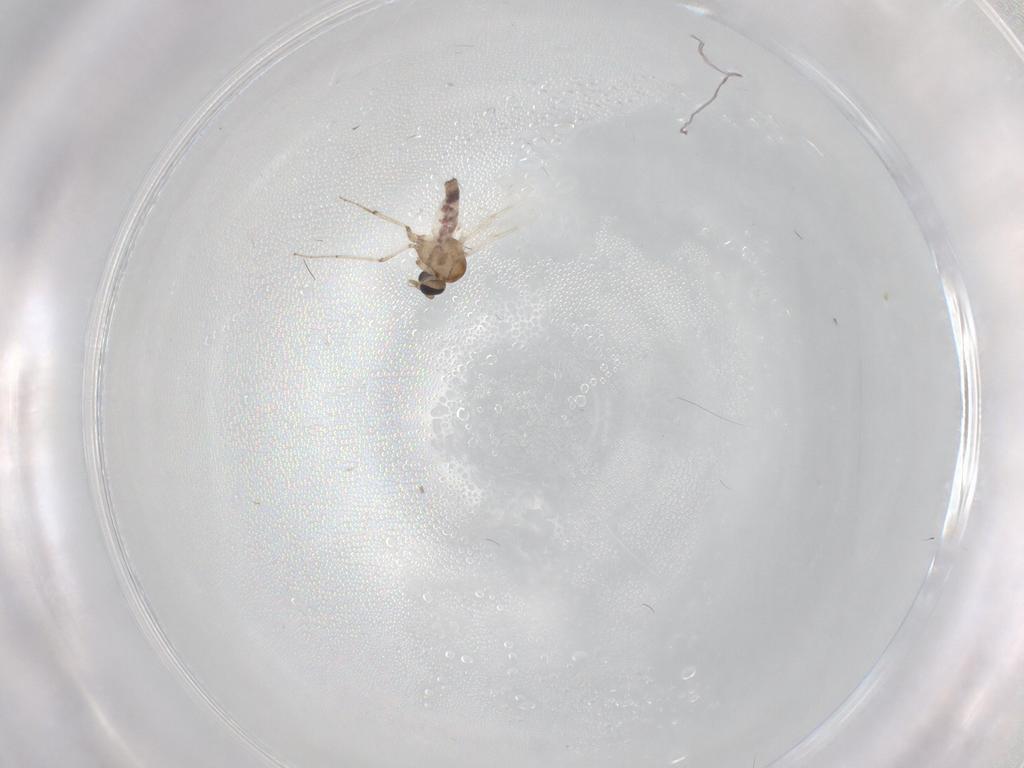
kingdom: Animalia
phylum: Arthropoda
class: Insecta
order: Diptera
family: Ceratopogonidae
